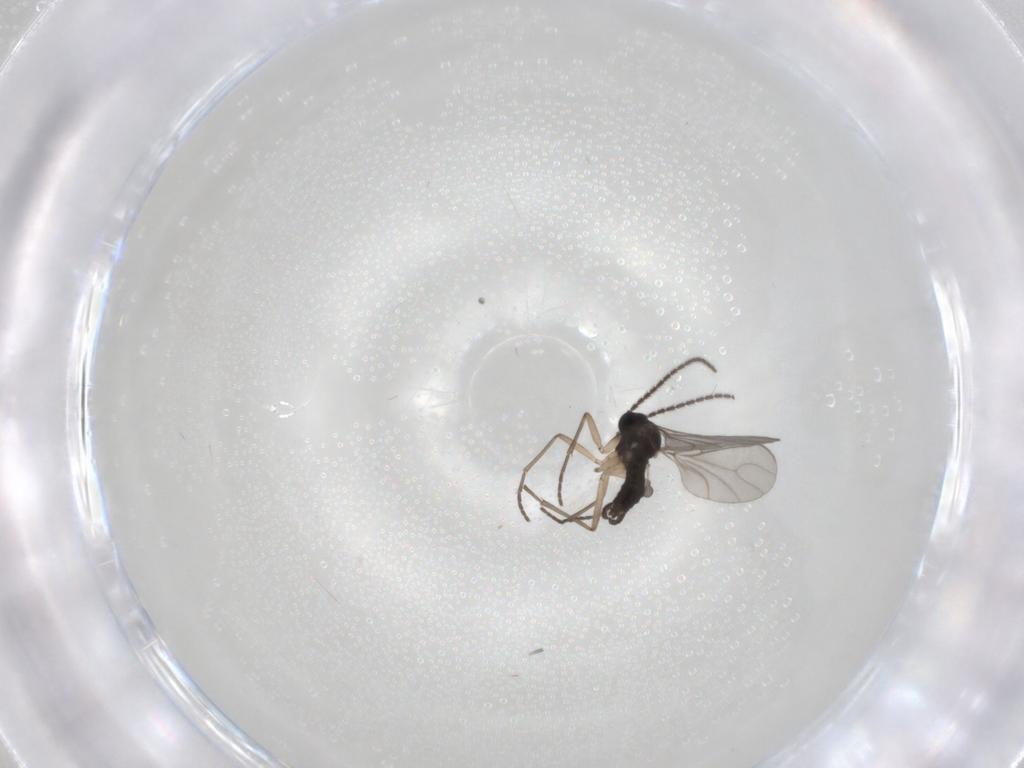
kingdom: Animalia
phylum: Arthropoda
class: Insecta
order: Diptera
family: Sciaridae
